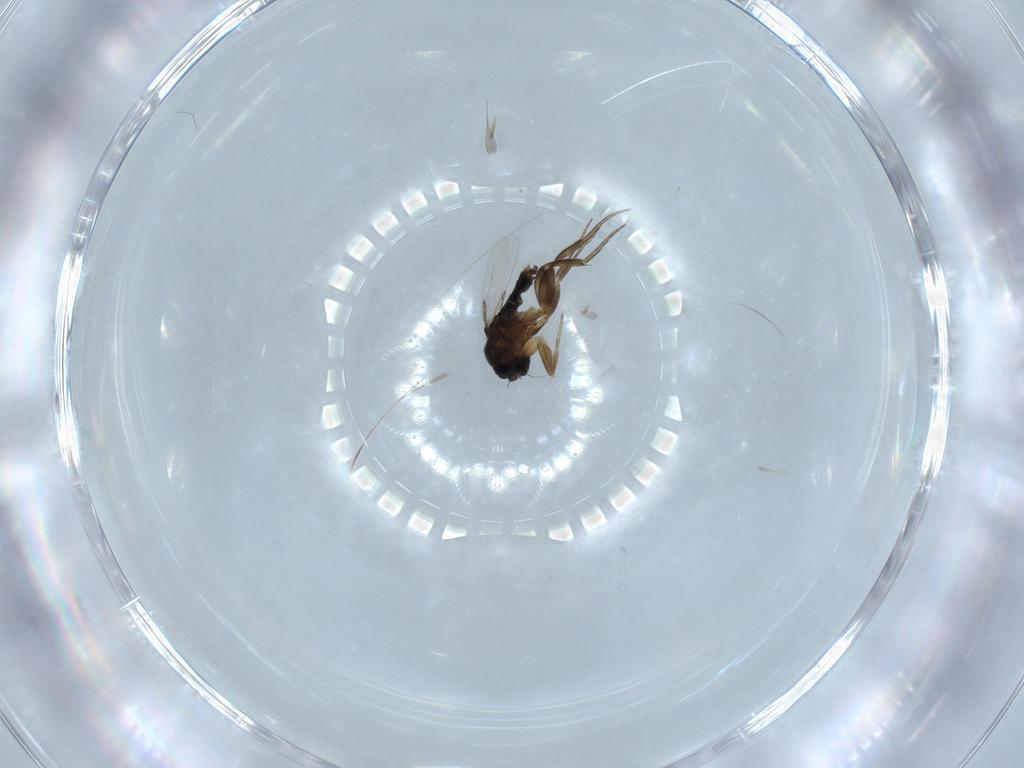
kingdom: Animalia
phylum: Arthropoda
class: Insecta
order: Diptera
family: Phoridae
